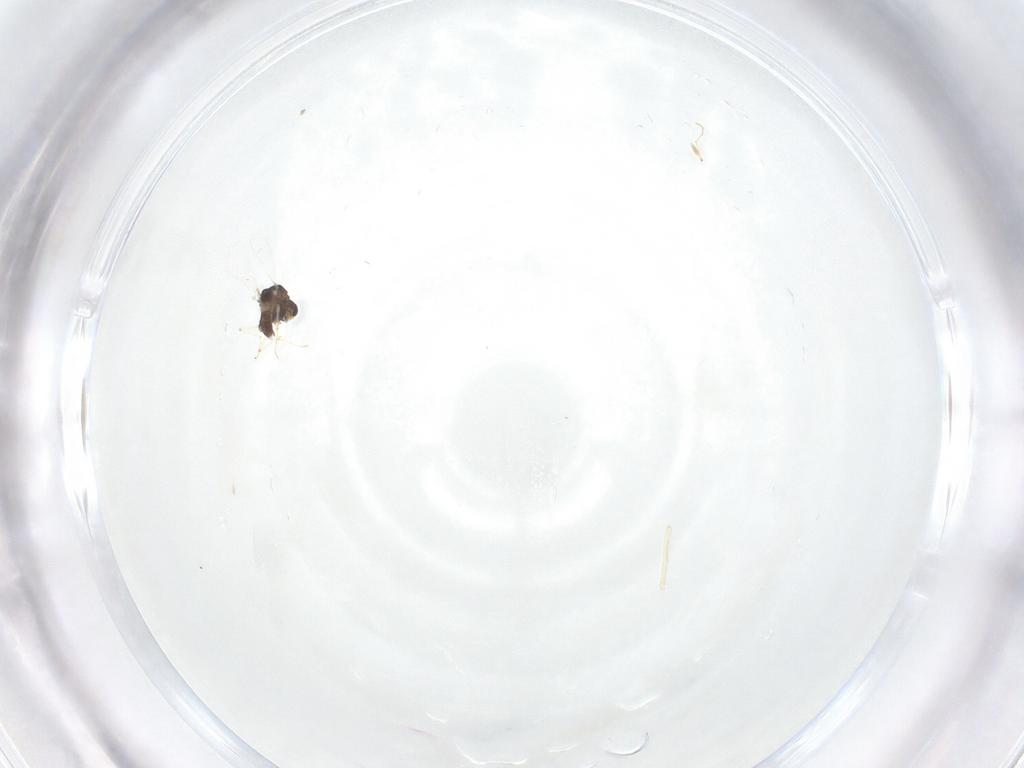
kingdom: Animalia
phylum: Arthropoda
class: Insecta
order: Diptera
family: Chironomidae
